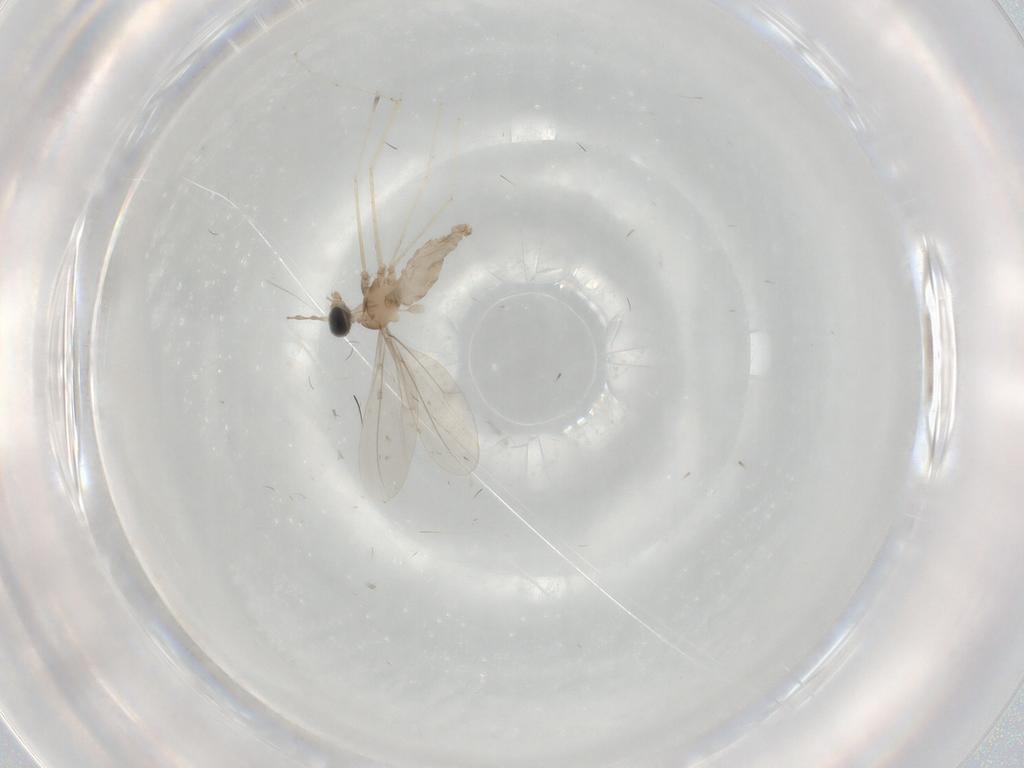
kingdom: Animalia
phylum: Arthropoda
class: Insecta
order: Diptera
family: Cecidomyiidae
